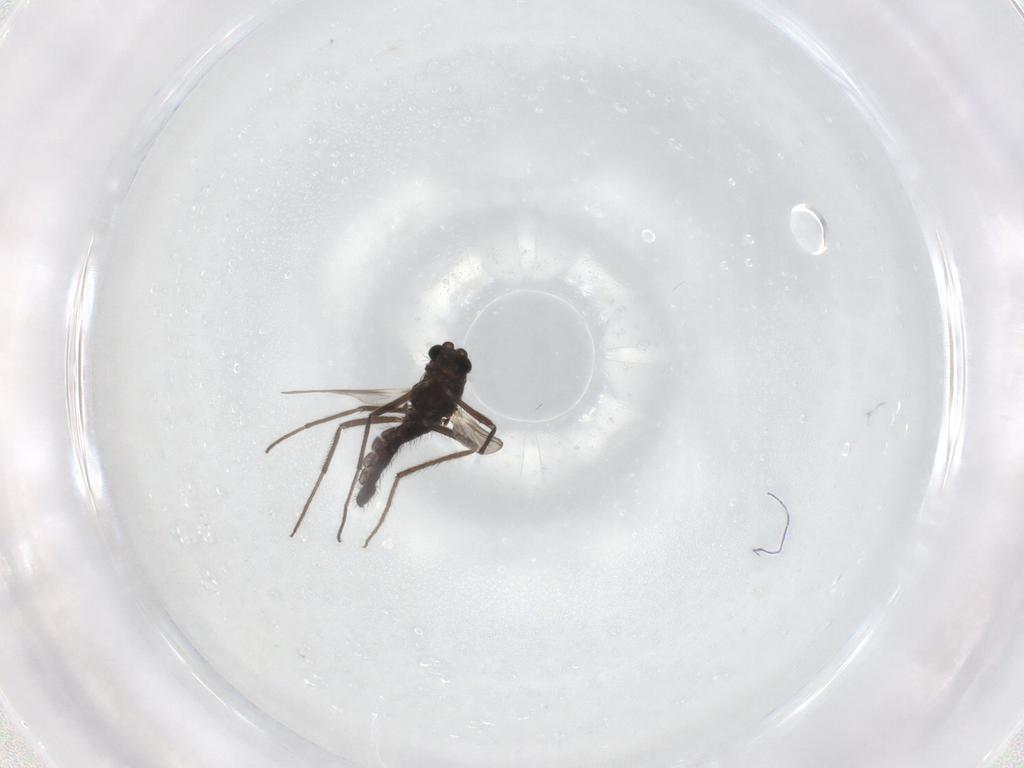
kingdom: Animalia
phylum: Arthropoda
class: Insecta
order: Diptera
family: Chironomidae
